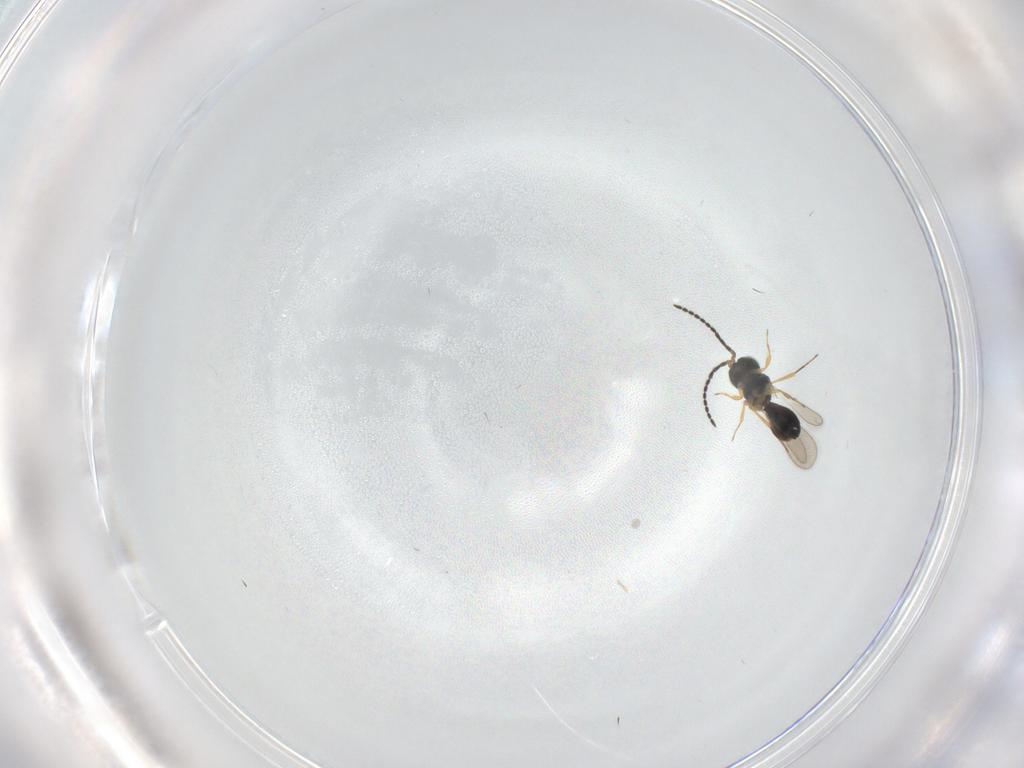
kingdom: Animalia
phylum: Arthropoda
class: Insecta
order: Hymenoptera
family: Scelionidae
